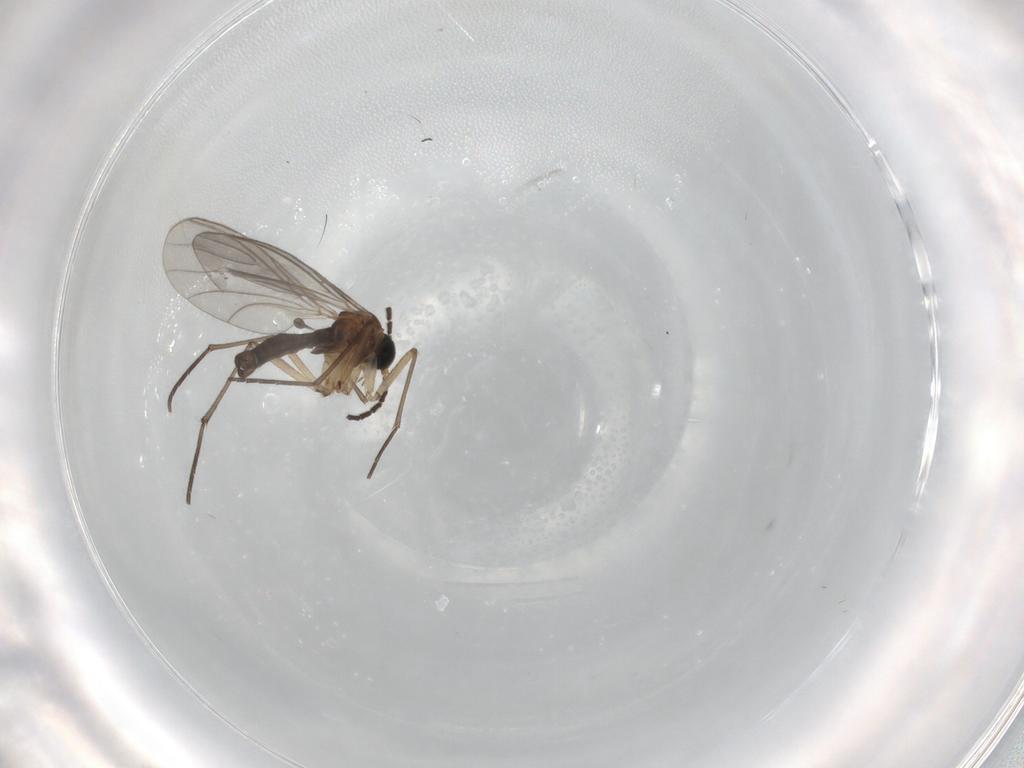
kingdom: Animalia
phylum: Arthropoda
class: Insecta
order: Diptera
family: Sciaridae
